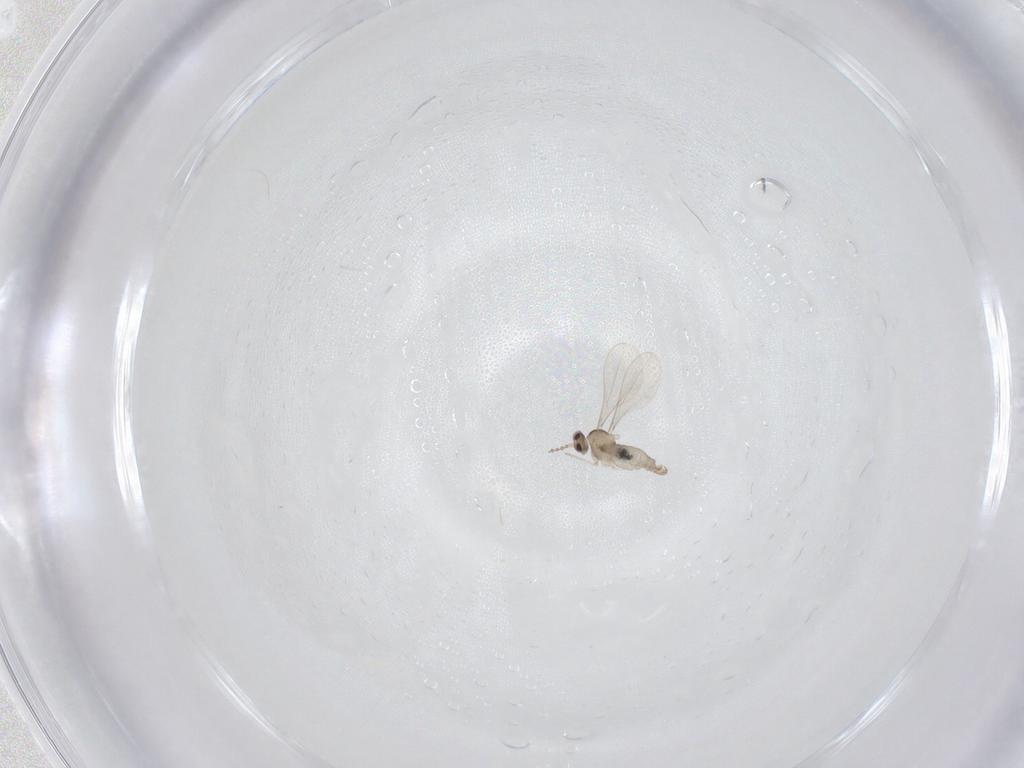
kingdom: Animalia
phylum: Arthropoda
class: Insecta
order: Diptera
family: Cecidomyiidae
